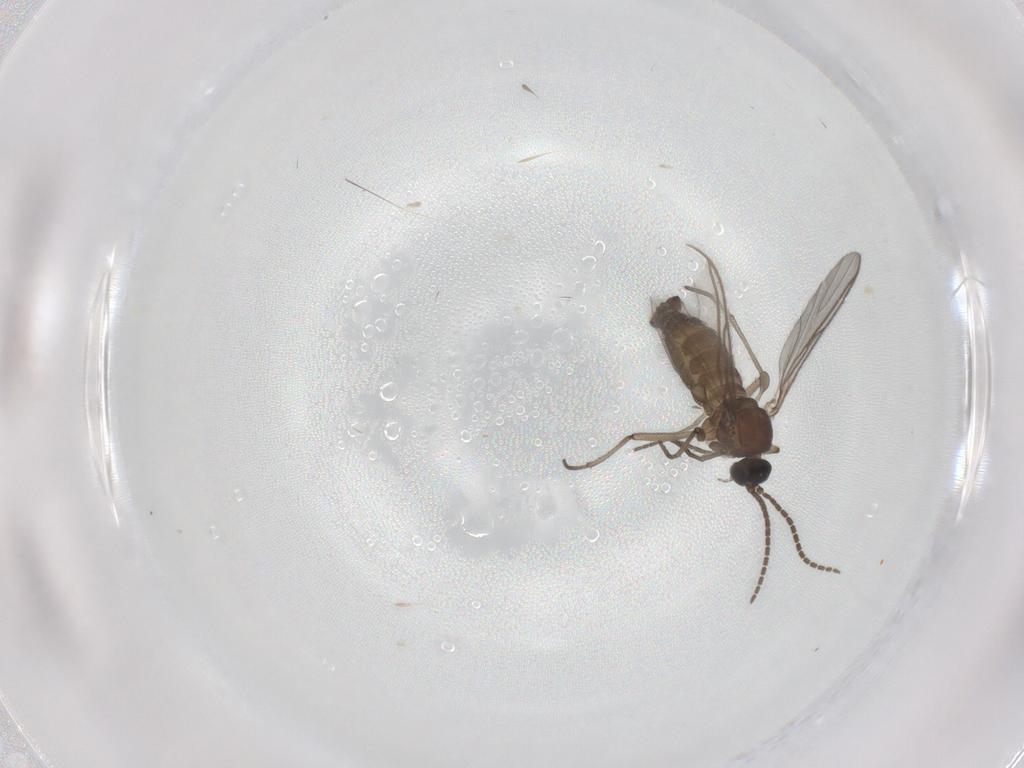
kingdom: Animalia
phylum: Arthropoda
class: Insecta
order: Diptera
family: Sciaridae
